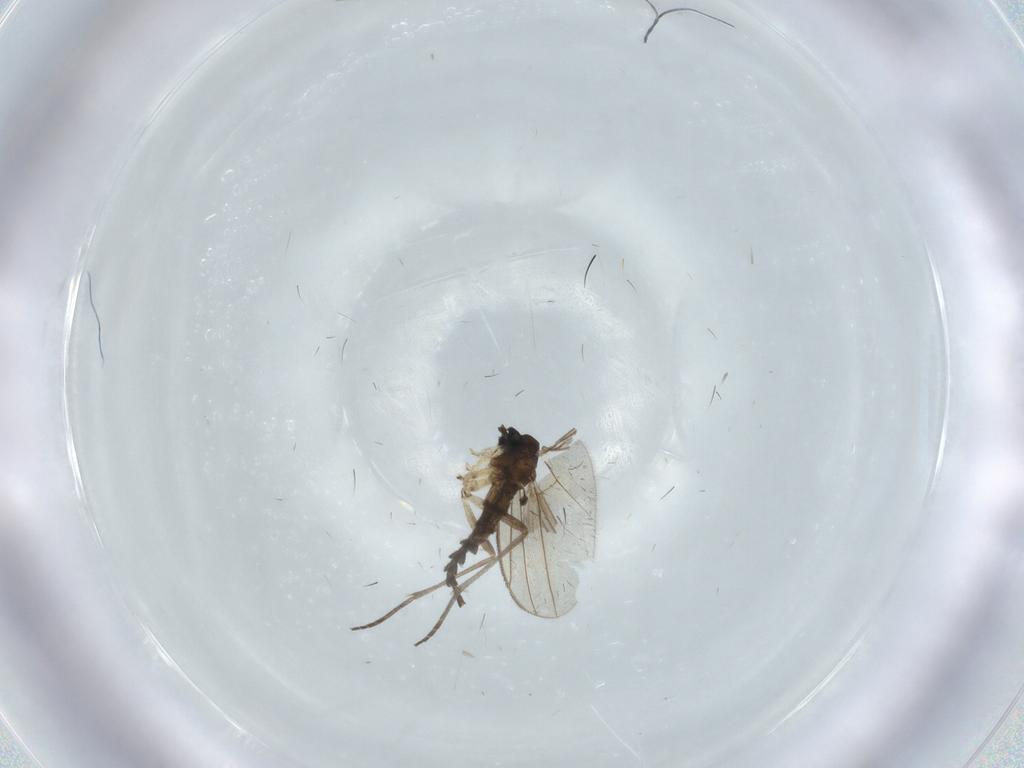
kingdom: Animalia
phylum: Arthropoda
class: Insecta
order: Diptera
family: Sciaridae
